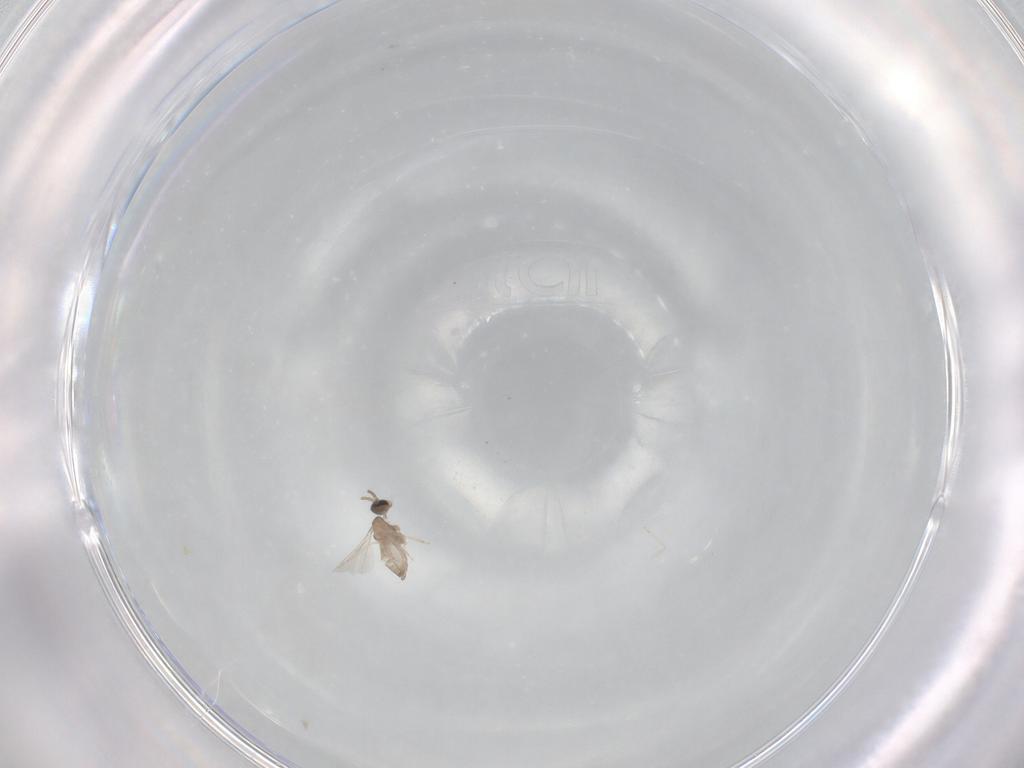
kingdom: Animalia
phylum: Arthropoda
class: Insecta
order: Diptera
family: Cecidomyiidae
